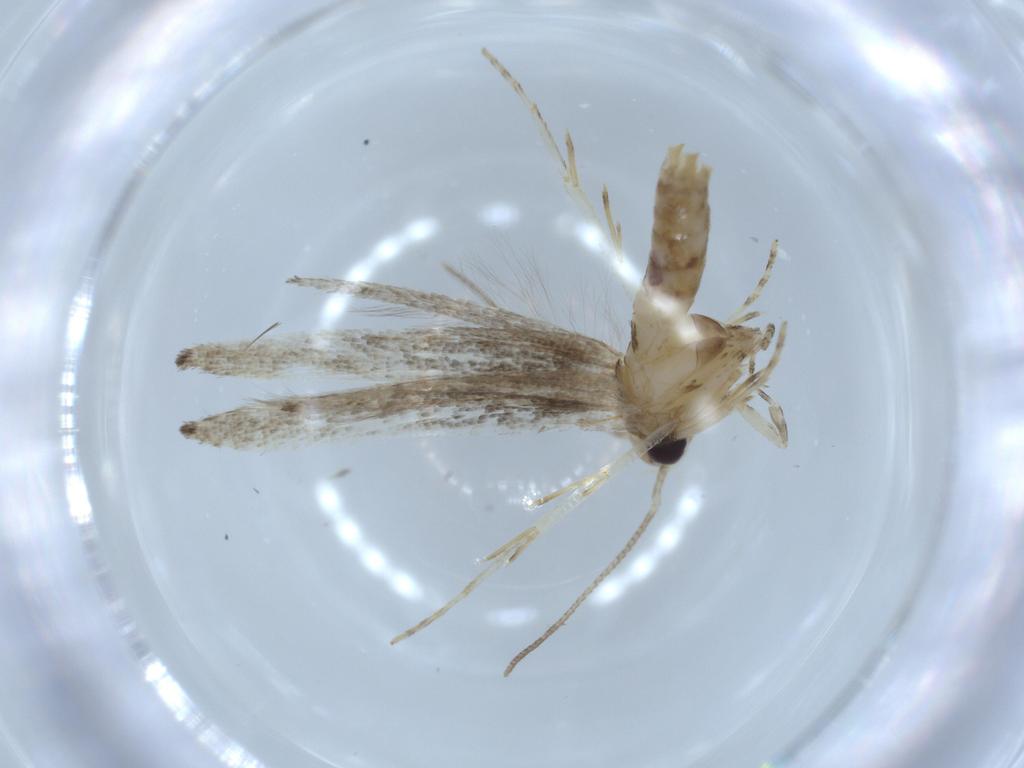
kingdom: Animalia
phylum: Arthropoda
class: Insecta
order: Lepidoptera
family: Cosmopterigidae
